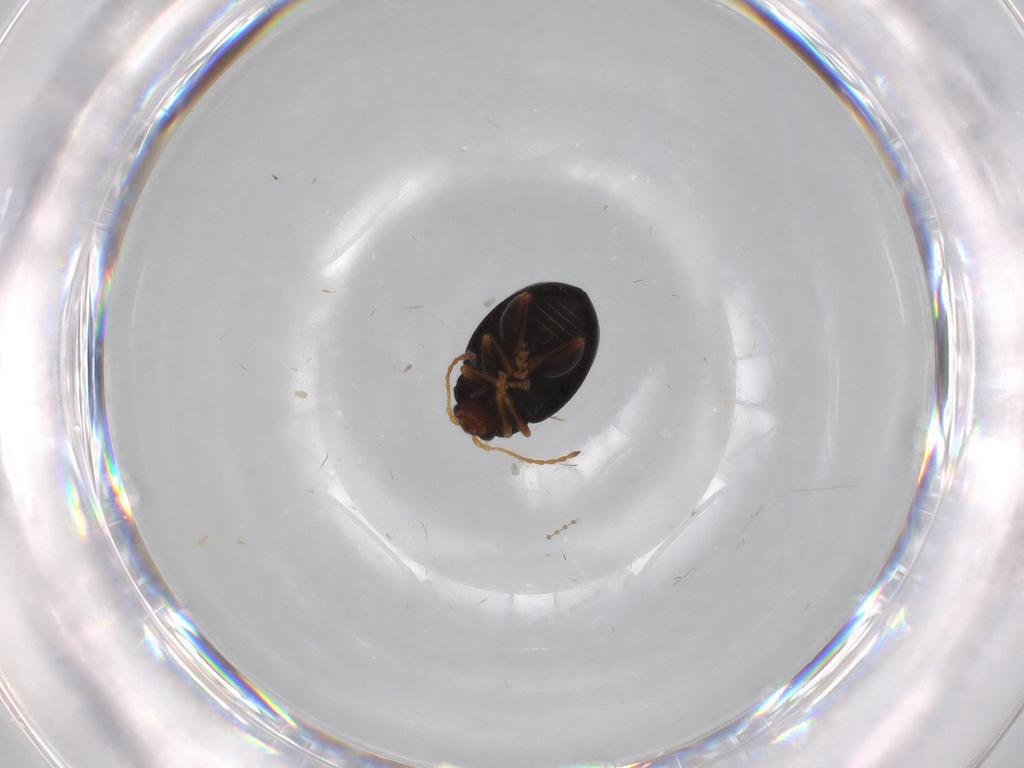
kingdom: Animalia
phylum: Arthropoda
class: Insecta
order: Coleoptera
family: Chrysomelidae
